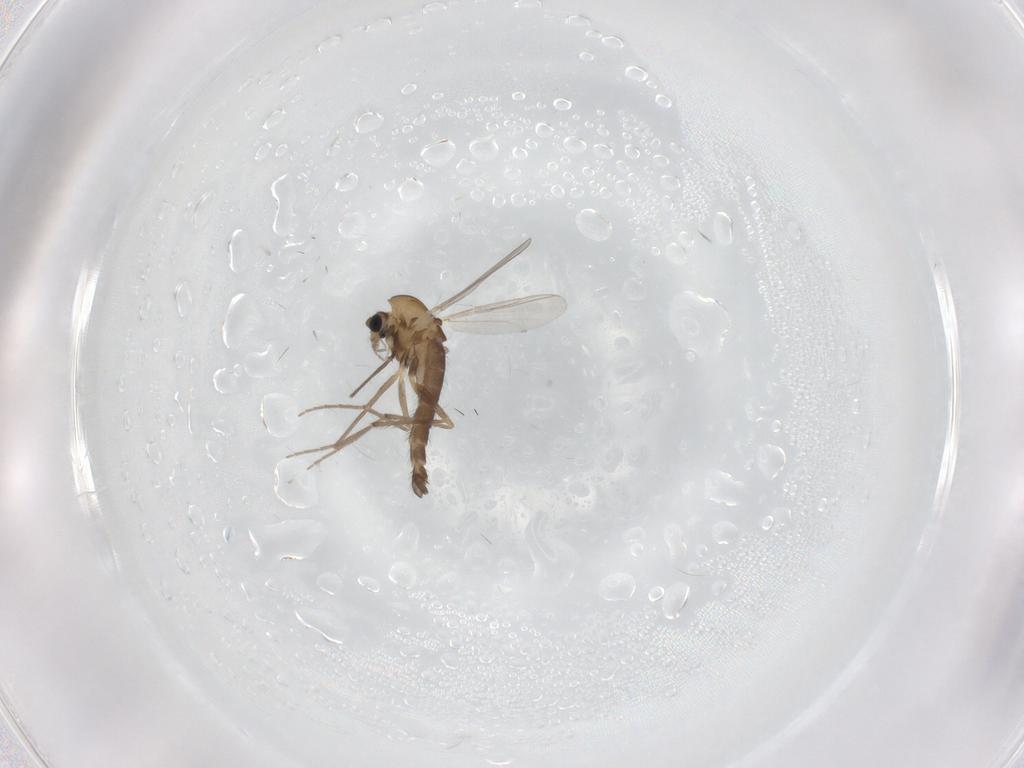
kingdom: Animalia
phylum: Arthropoda
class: Insecta
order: Diptera
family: Chironomidae
